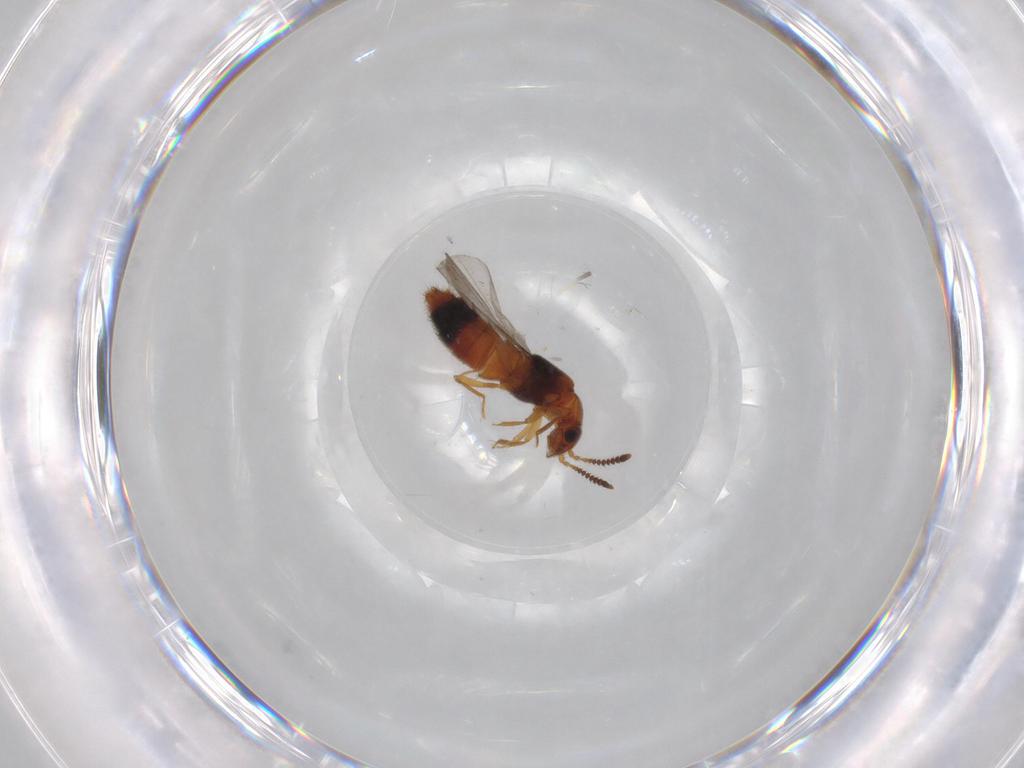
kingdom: Animalia
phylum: Arthropoda
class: Insecta
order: Coleoptera
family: Staphylinidae
